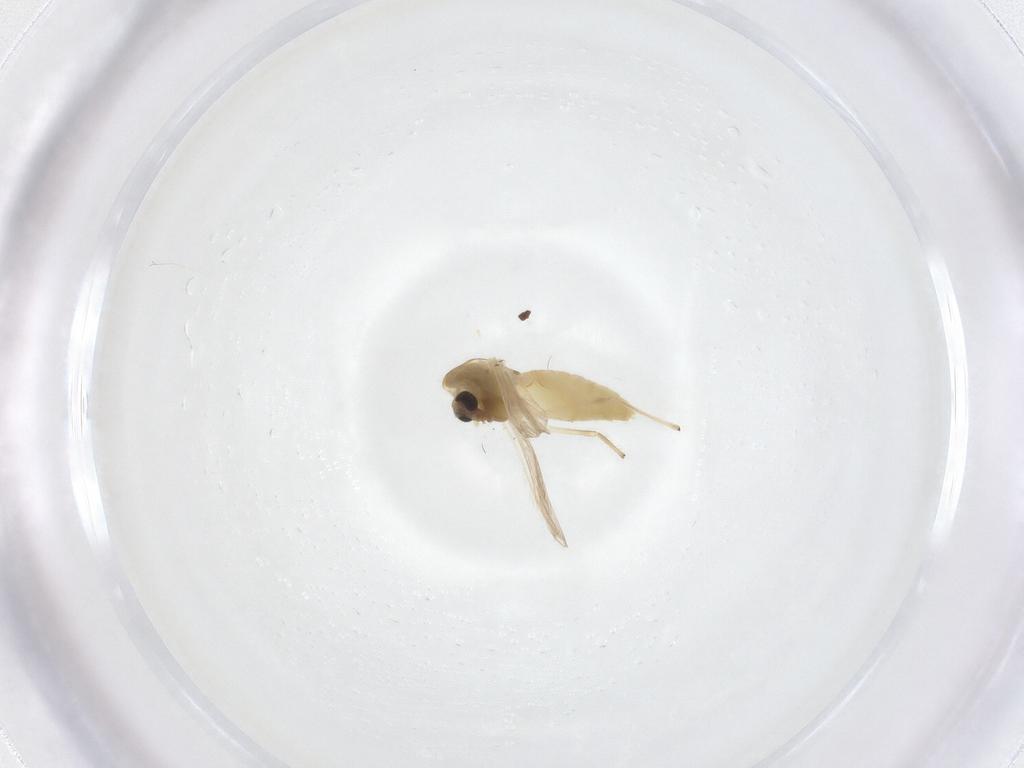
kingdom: Animalia
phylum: Arthropoda
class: Insecta
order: Diptera
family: Chironomidae
